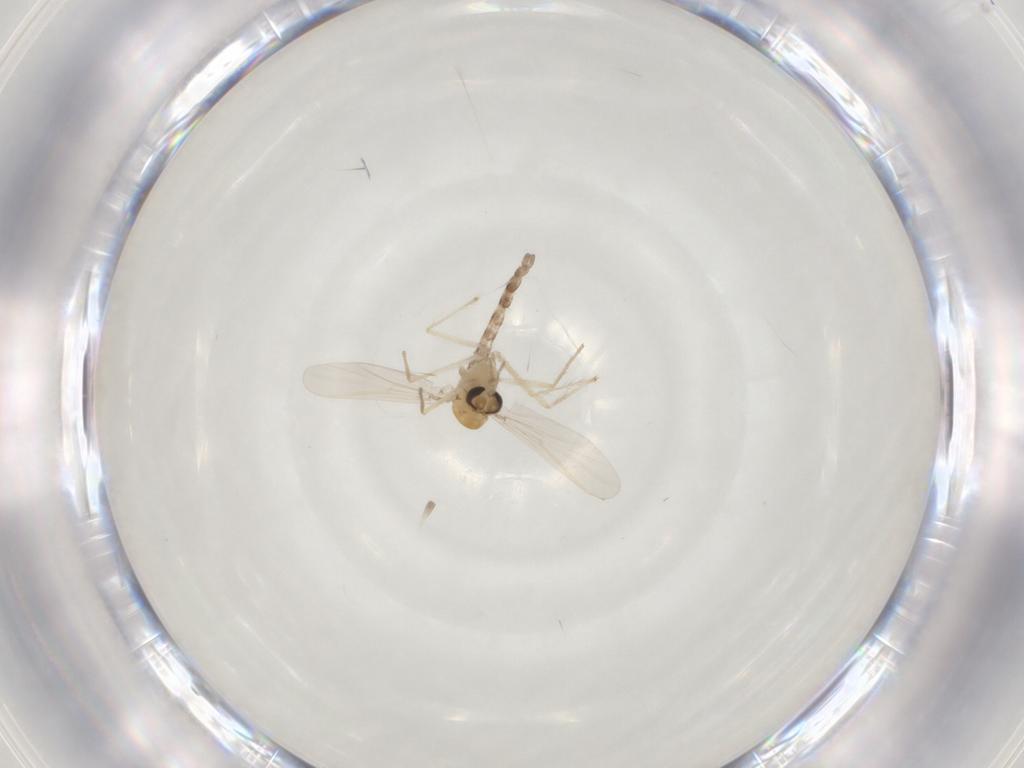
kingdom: Animalia
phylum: Arthropoda
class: Insecta
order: Diptera
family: Chironomidae
